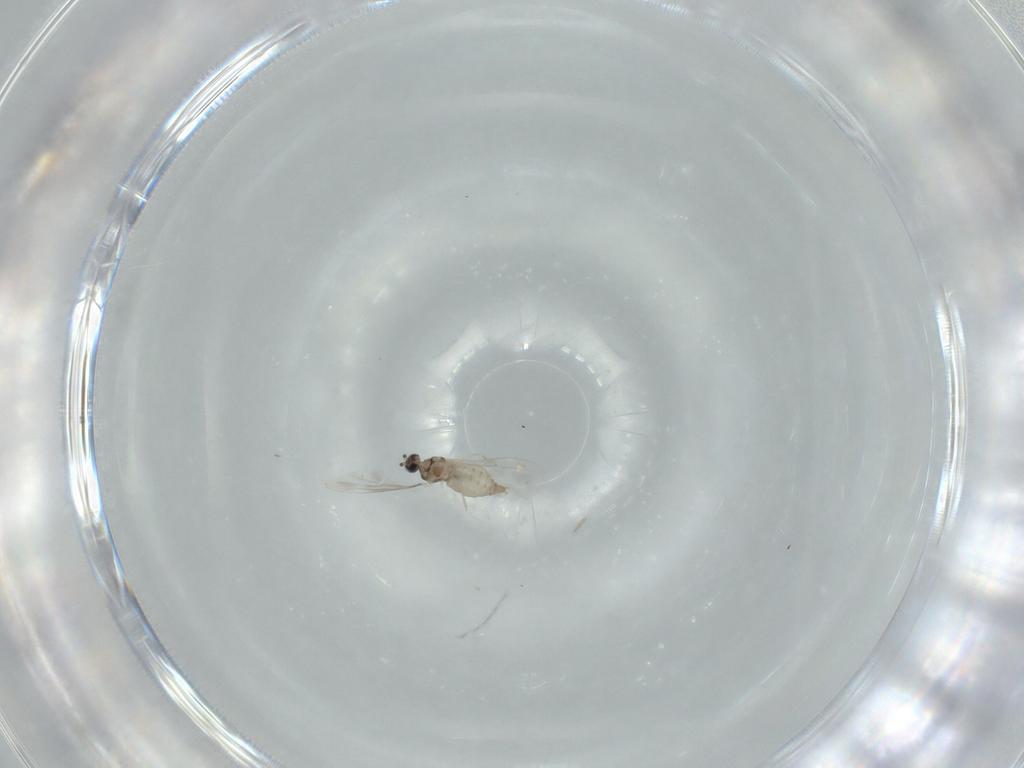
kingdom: Animalia
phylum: Arthropoda
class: Insecta
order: Diptera
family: Cecidomyiidae
